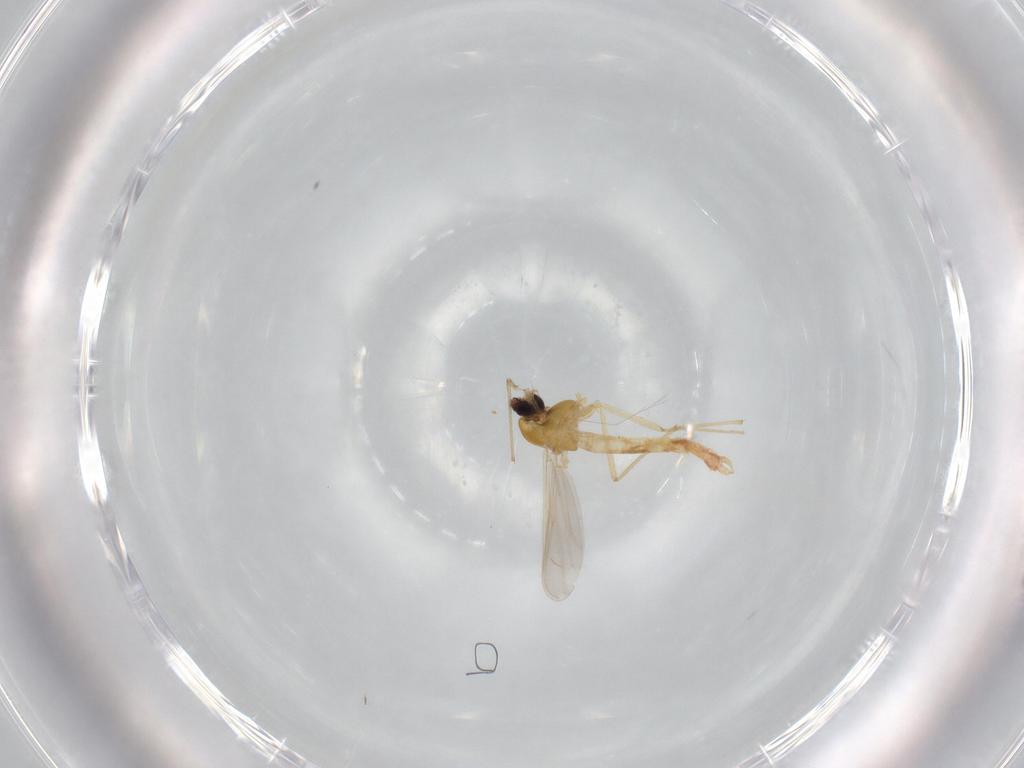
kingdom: Animalia
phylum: Arthropoda
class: Insecta
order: Diptera
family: Chironomidae
